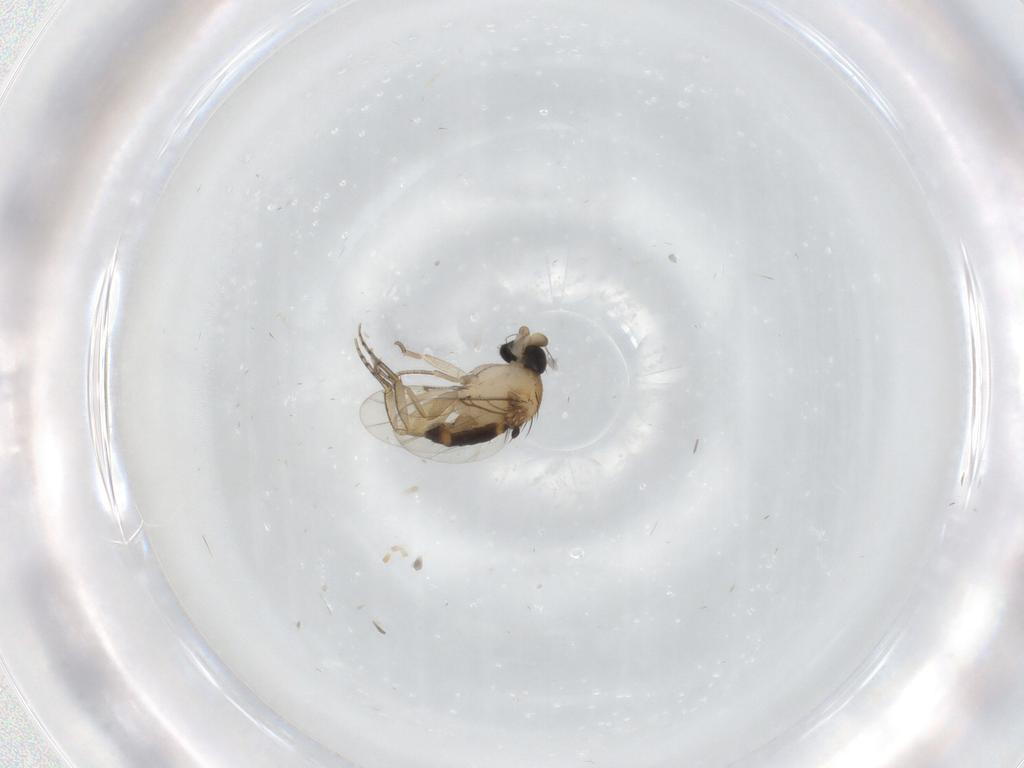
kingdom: Animalia
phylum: Arthropoda
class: Insecta
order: Diptera
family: Phoridae
